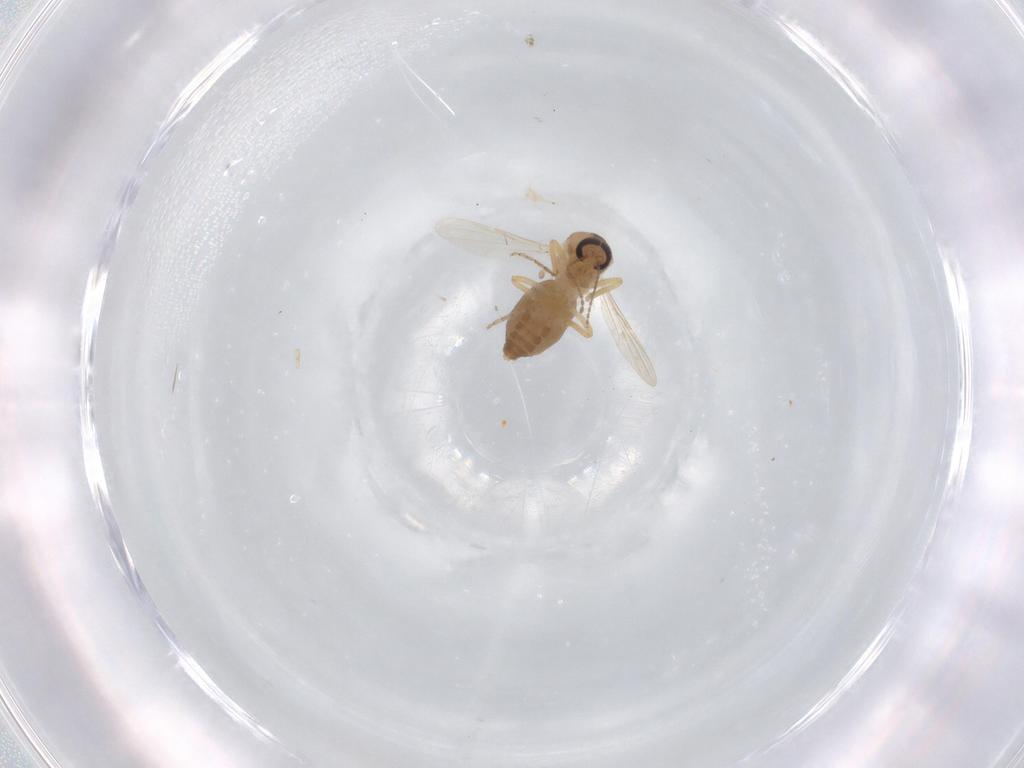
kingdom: Animalia
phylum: Arthropoda
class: Insecta
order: Diptera
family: Ceratopogonidae
